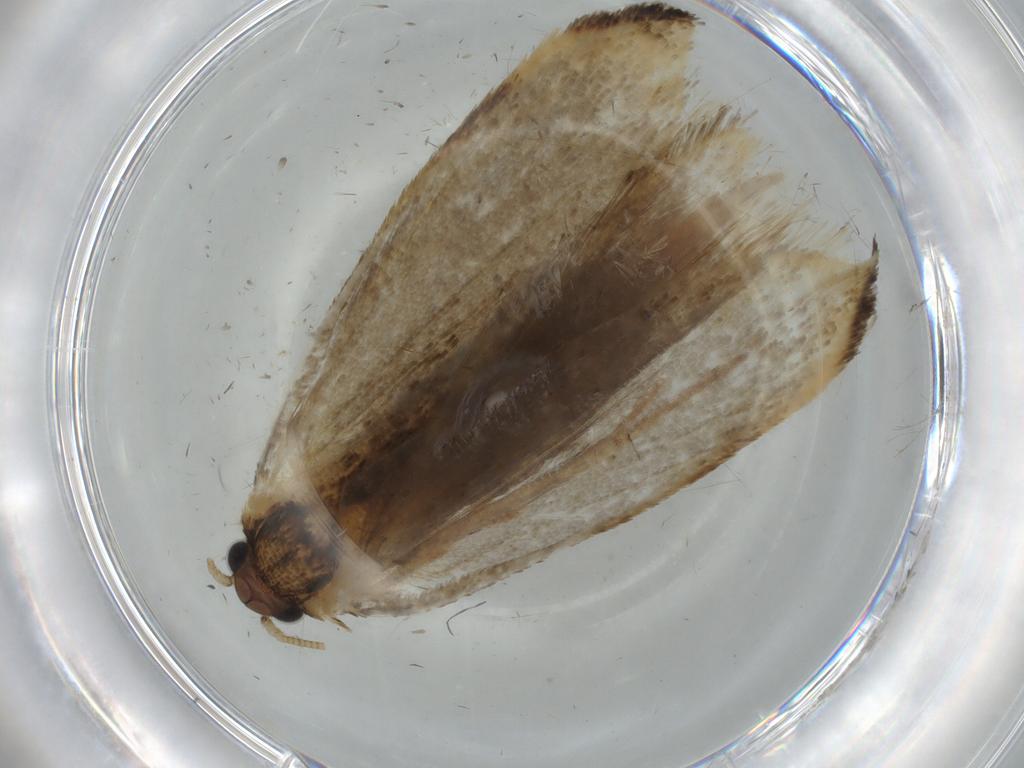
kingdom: Animalia
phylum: Arthropoda
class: Insecta
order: Lepidoptera
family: Tineidae
